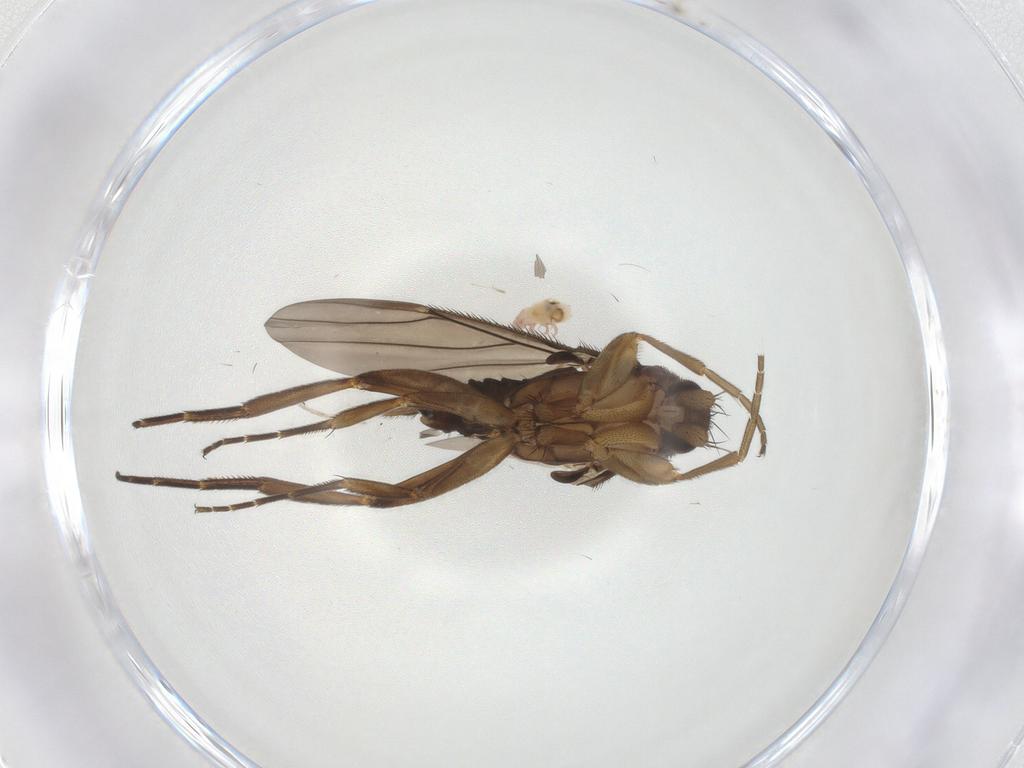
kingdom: Animalia
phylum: Arthropoda
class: Insecta
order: Diptera
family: Phoridae
